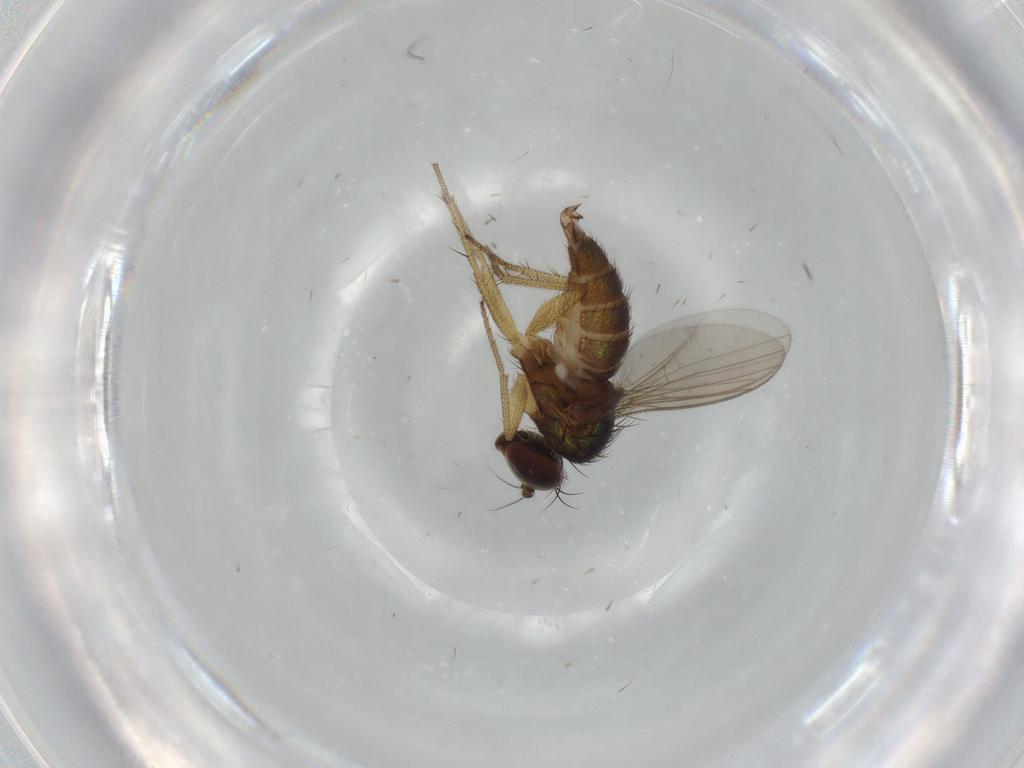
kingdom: Animalia
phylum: Arthropoda
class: Insecta
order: Diptera
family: Dolichopodidae
